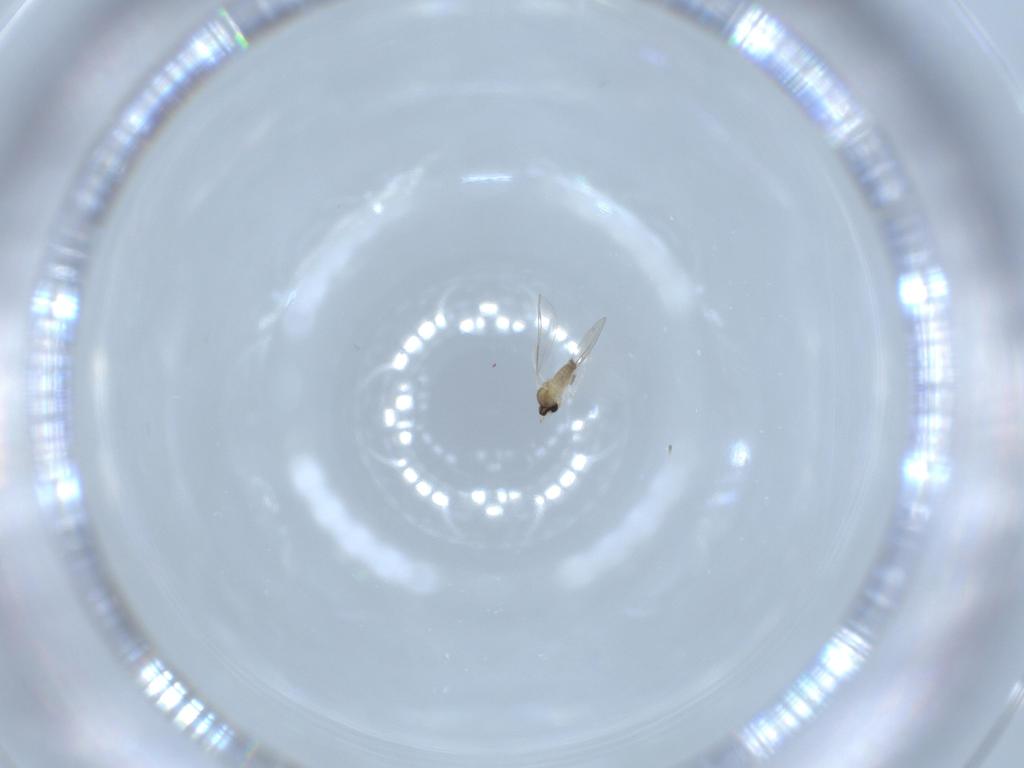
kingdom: Animalia
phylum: Arthropoda
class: Insecta
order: Diptera
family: Cecidomyiidae
